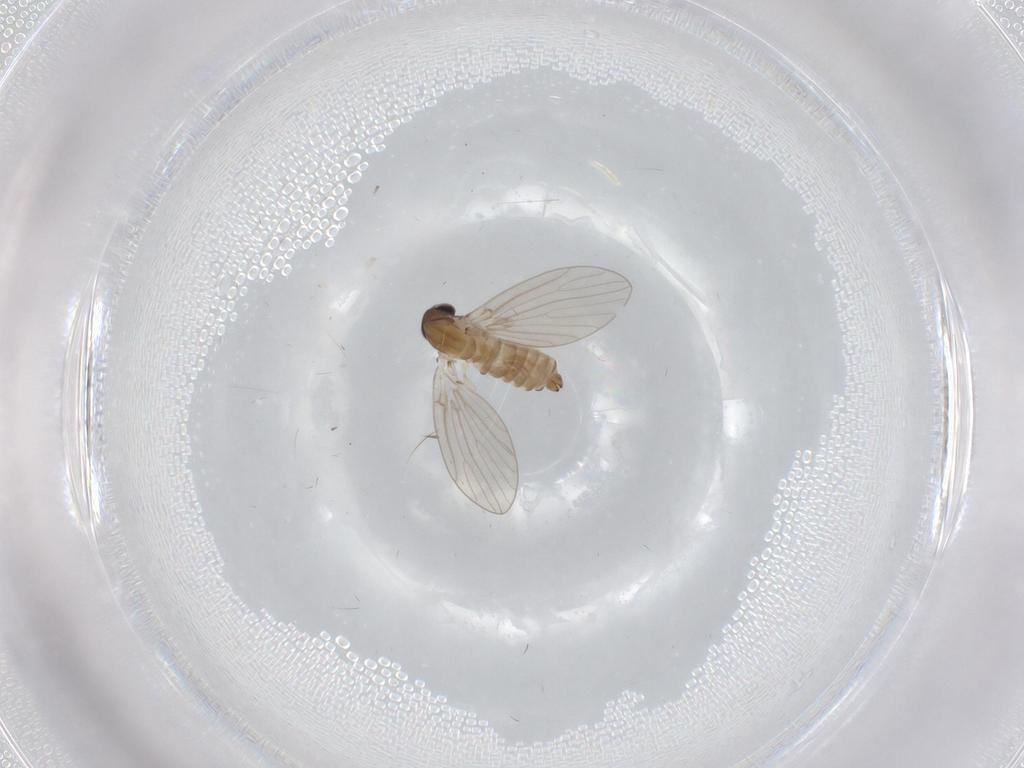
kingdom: Animalia
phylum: Arthropoda
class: Insecta
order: Diptera
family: Psychodidae
